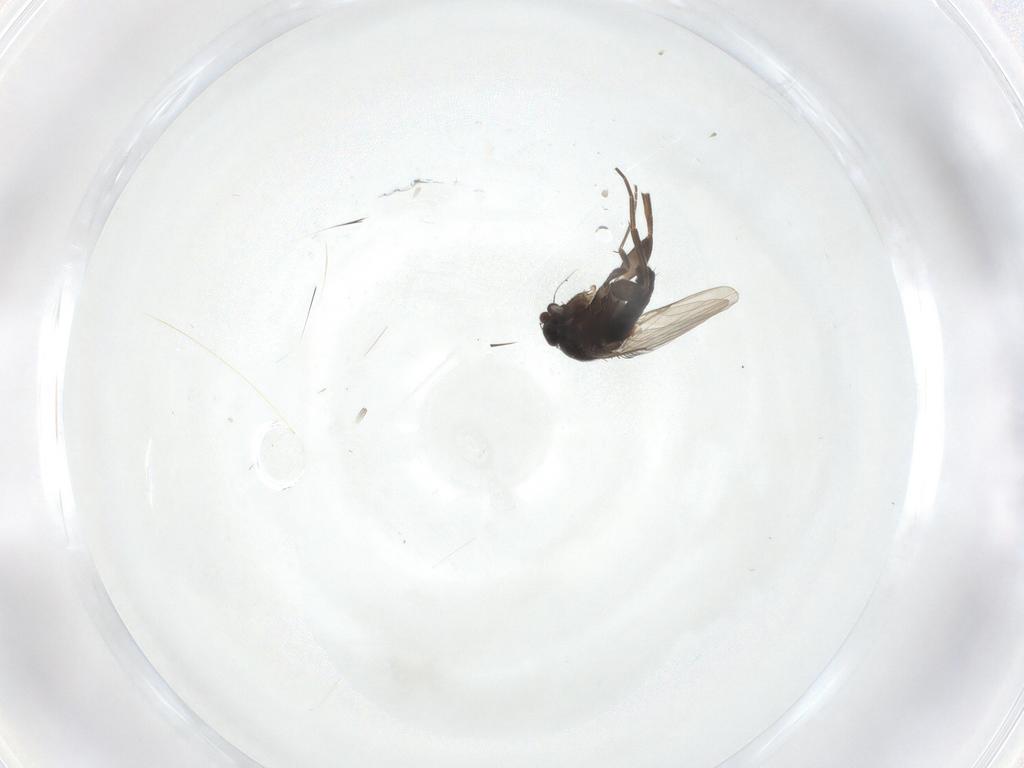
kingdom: Animalia
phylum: Arthropoda
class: Insecta
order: Diptera
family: Phoridae
